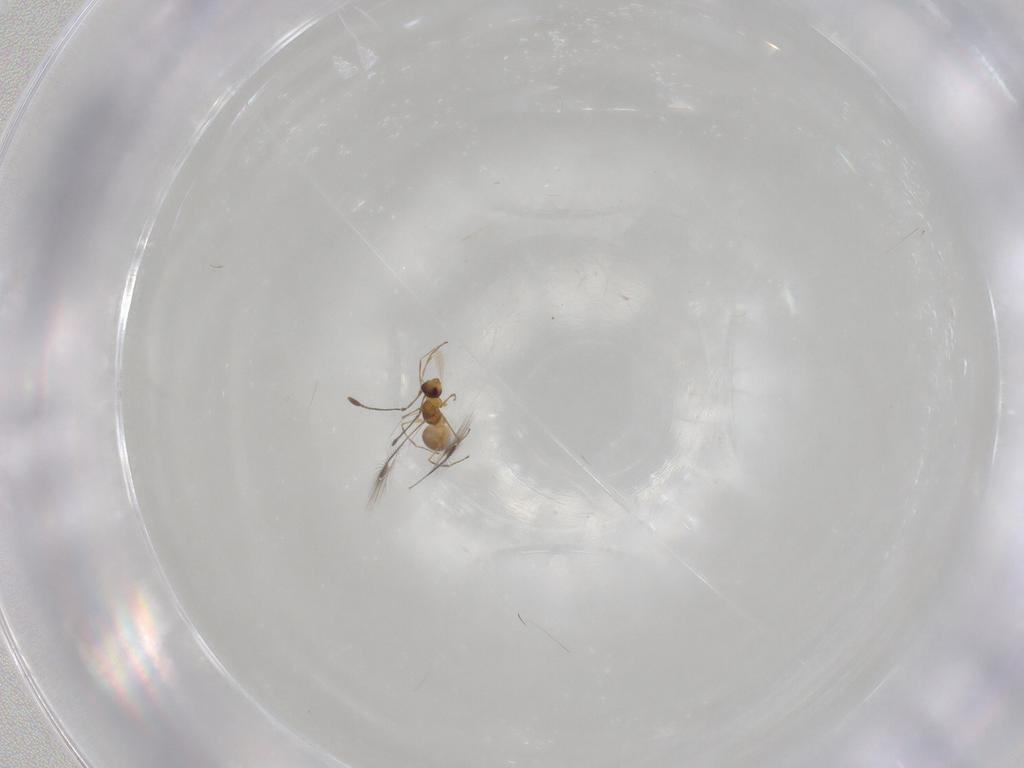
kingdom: Animalia
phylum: Arthropoda
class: Insecta
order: Hymenoptera
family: Mymaridae
